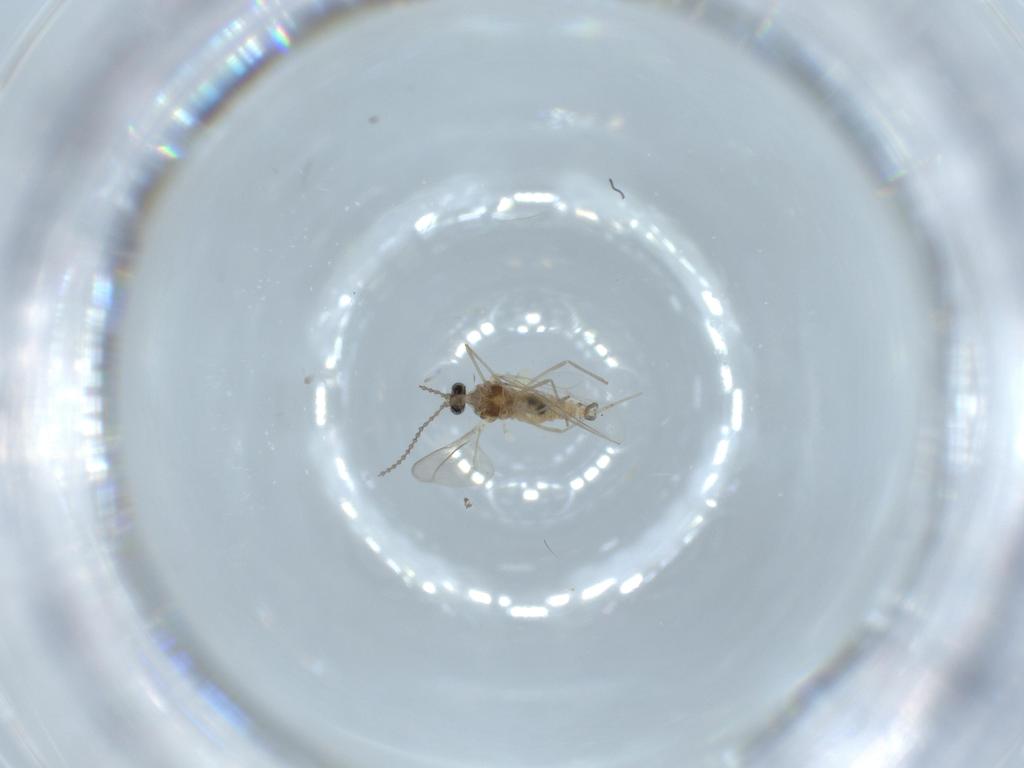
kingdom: Animalia
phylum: Arthropoda
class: Insecta
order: Diptera
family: Cecidomyiidae
